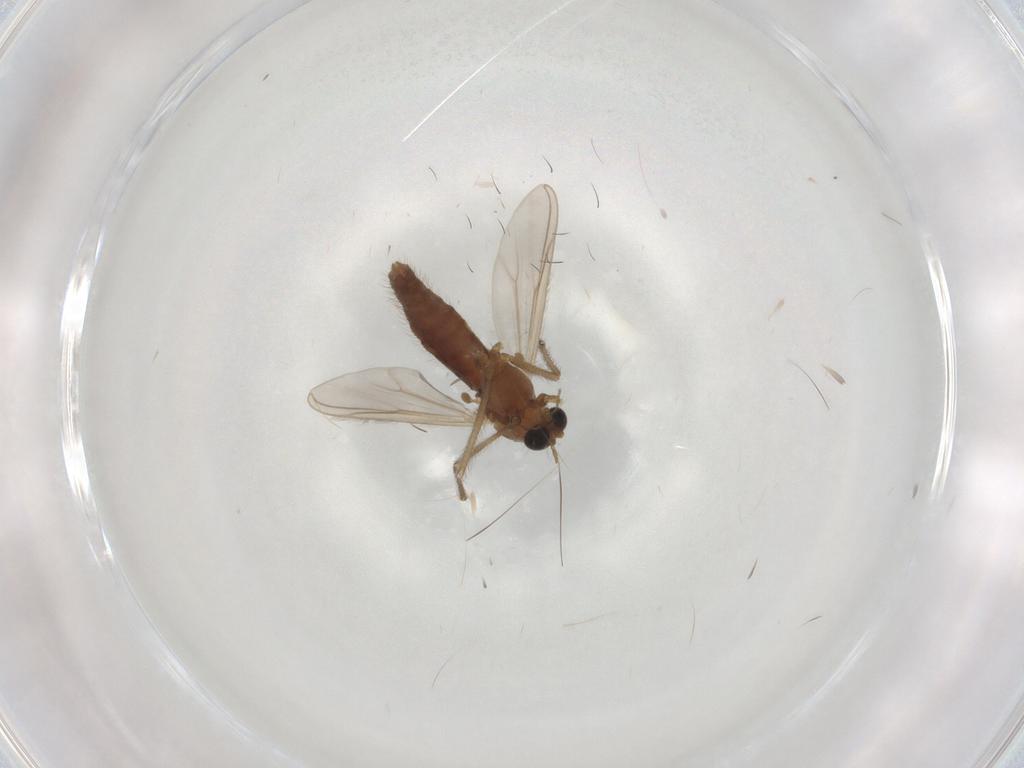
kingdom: Animalia
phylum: Arthropoda
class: Insecta
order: Diptera
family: Chironomidae
